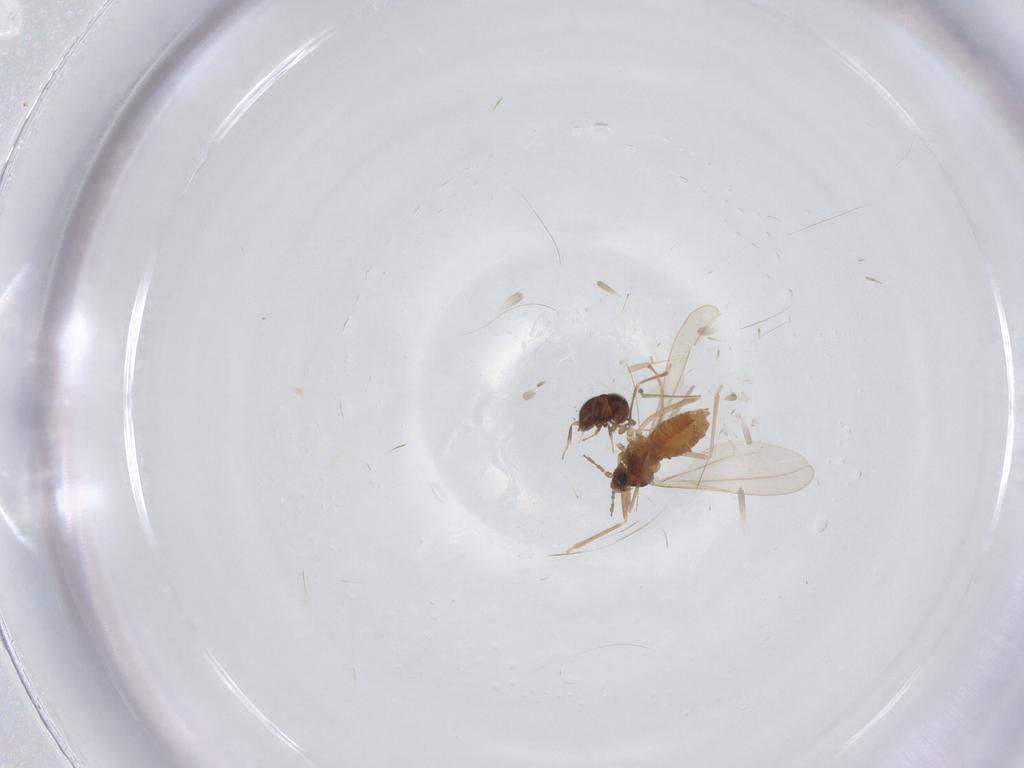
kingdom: Animalia
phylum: Arthropoda
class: Insecta
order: Diptera
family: Cecidomyiidae
